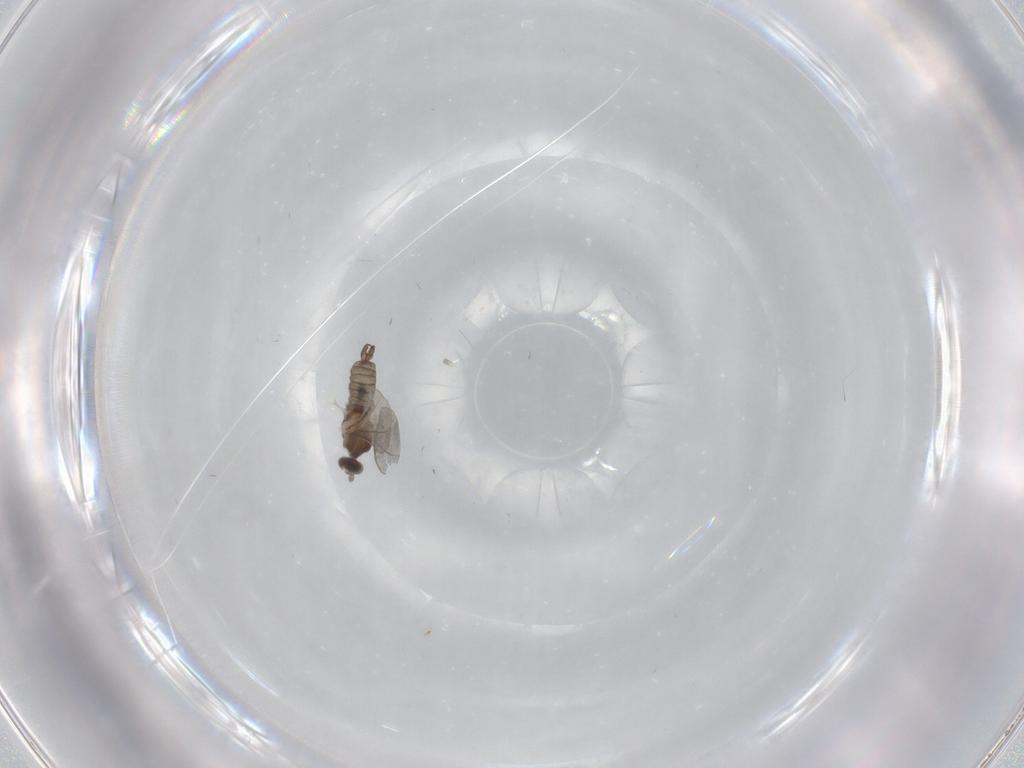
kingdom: Animalia
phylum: Arthropoda
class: Insecta
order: Diptera
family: Cecidomyiidae
